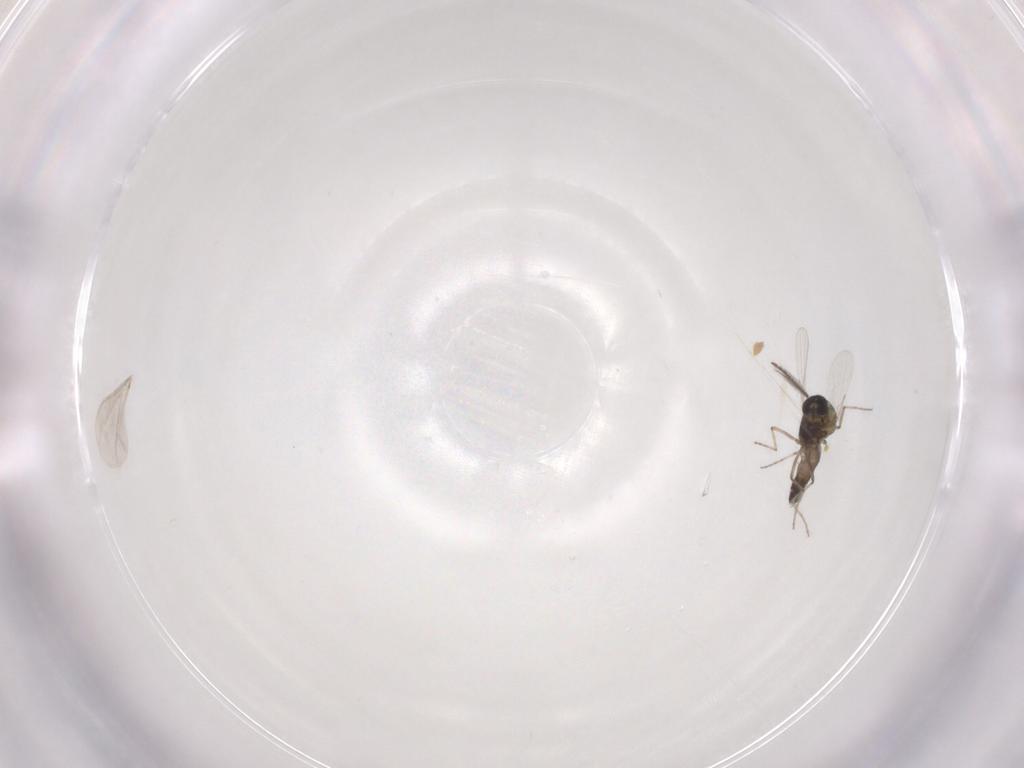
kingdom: Animalia
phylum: Arthropoda
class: Insecta
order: Diptera
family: Ceratopogonidae
